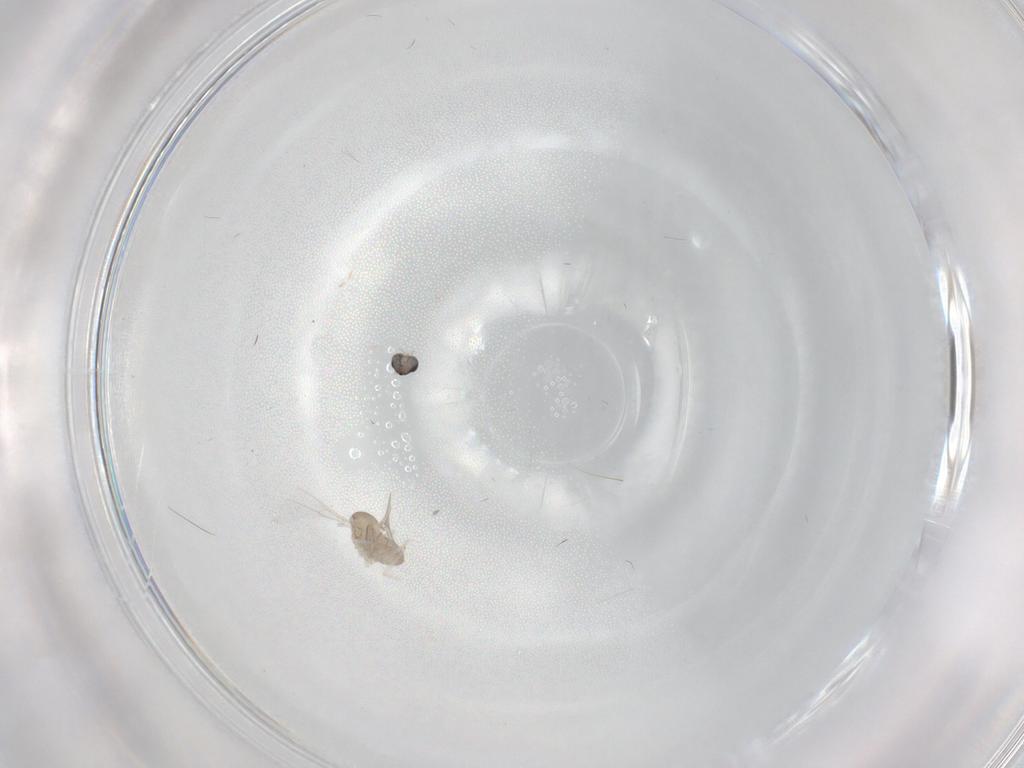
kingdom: Animalia
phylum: Arthropoda
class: Insecta
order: Diptera
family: Cecidomyiidae
